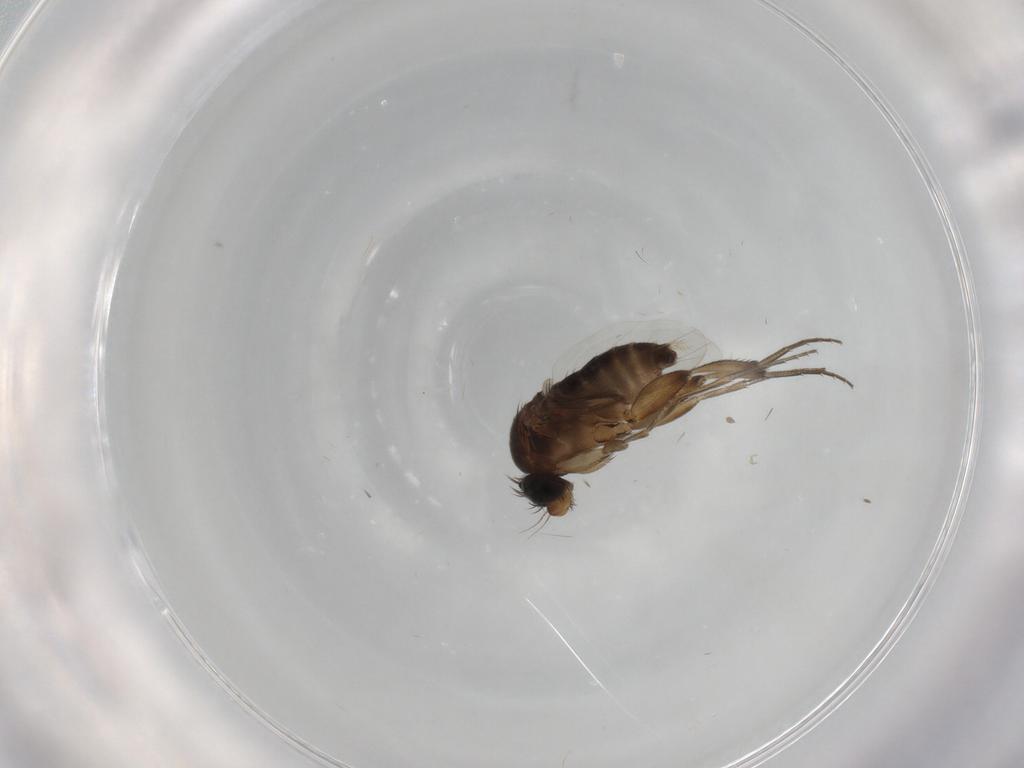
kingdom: Animalia
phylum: Arthropoda
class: Insecta
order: Diptera
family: Phoridae
